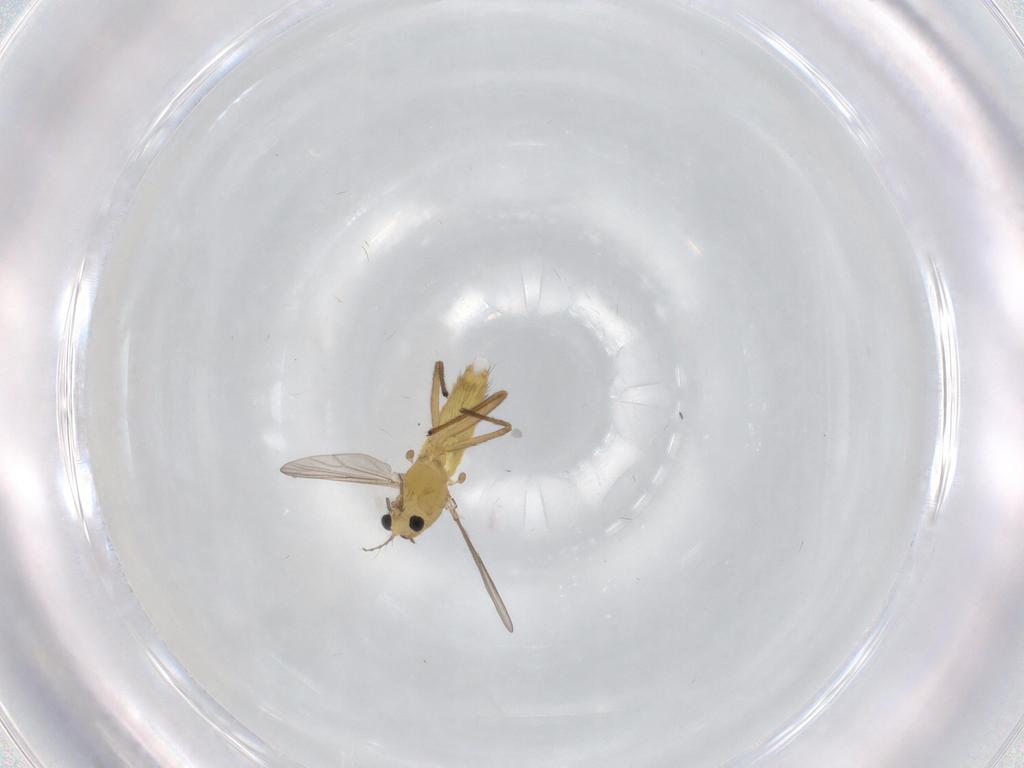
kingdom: Animalia
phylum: Arthropoda
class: Insecta
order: Diptera
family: Chironomidae
